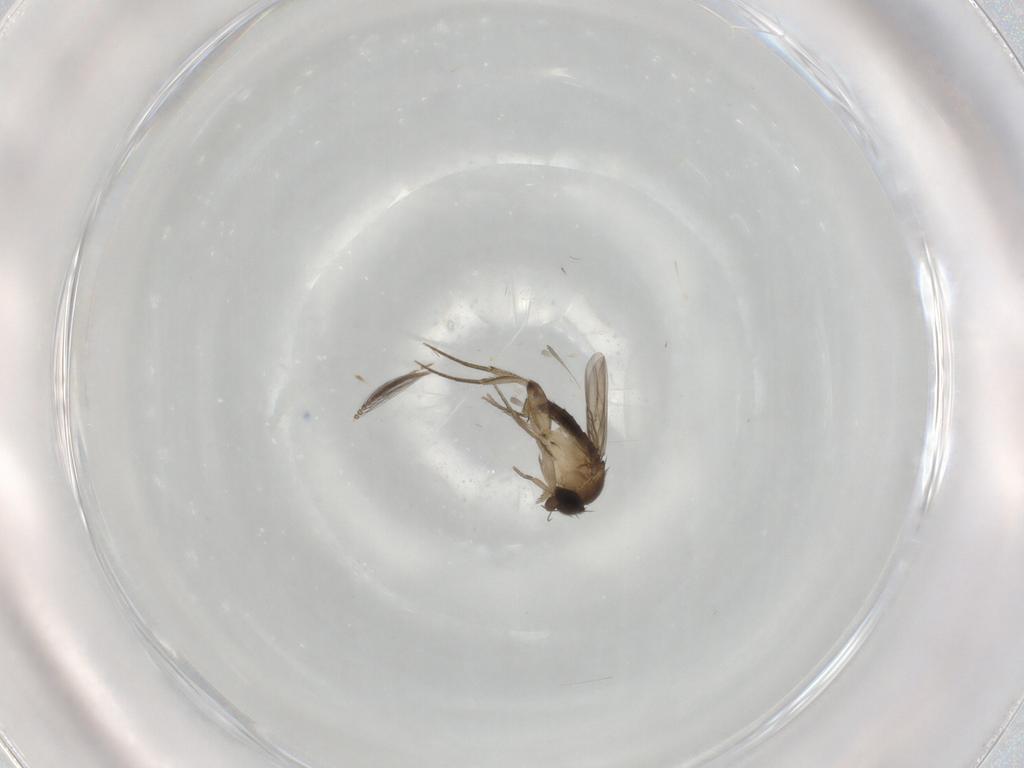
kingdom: Animalia
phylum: Arthropoda
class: Insecta
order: Diptera
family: Phoridae
